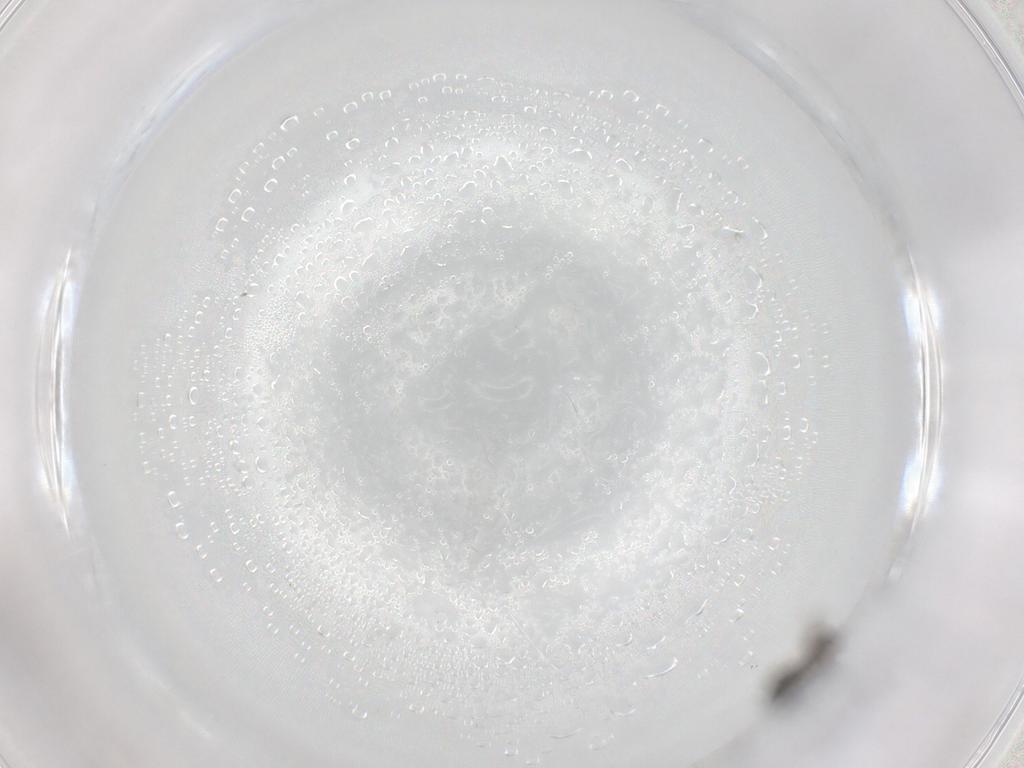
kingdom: Animalia
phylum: Arthropoda
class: Insecta
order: Diptera
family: Sciaridae
